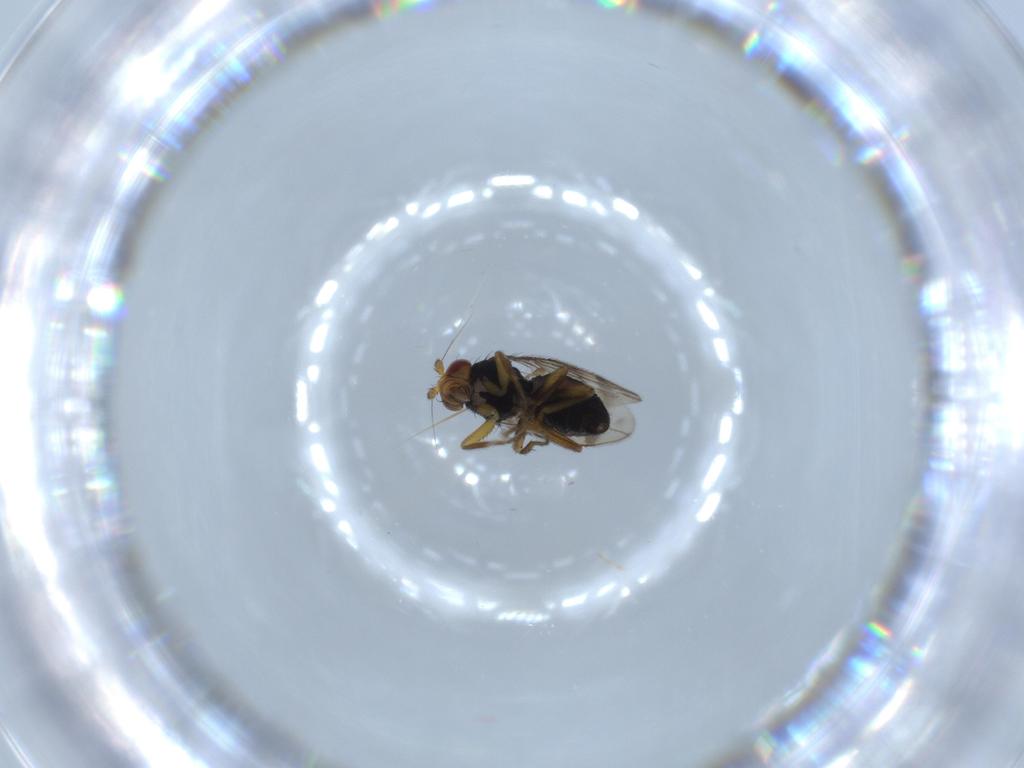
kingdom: Animalia
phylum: Arthropoda
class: Insecta
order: Diptera
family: Sphaeroceridae
